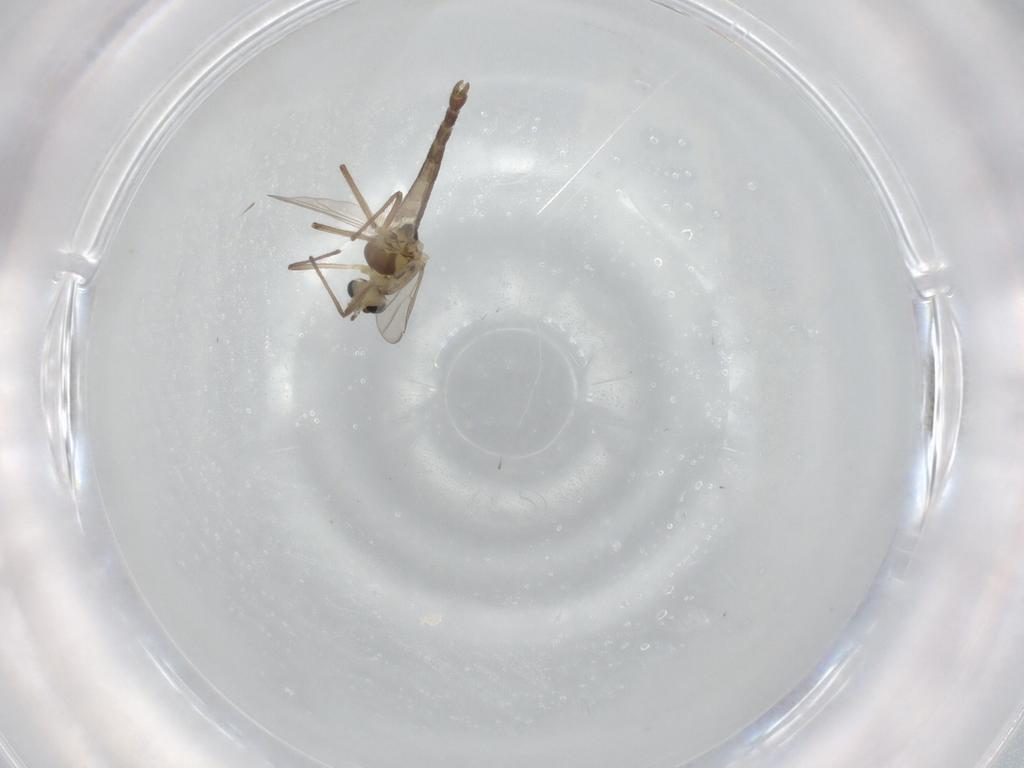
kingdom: Animalia
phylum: Arthropoda
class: Insecta
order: Diptera
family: Chironomidae
